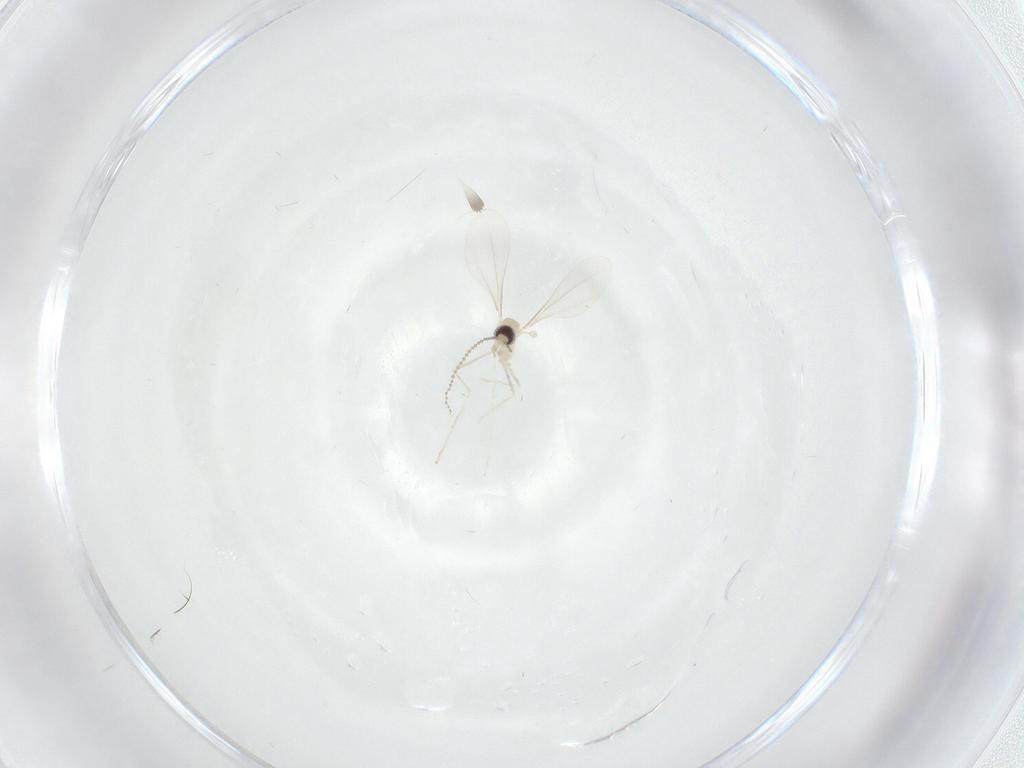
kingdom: Animalia
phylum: Arthropoda
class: Insecta
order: Diptera
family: Cecidomyiidae
